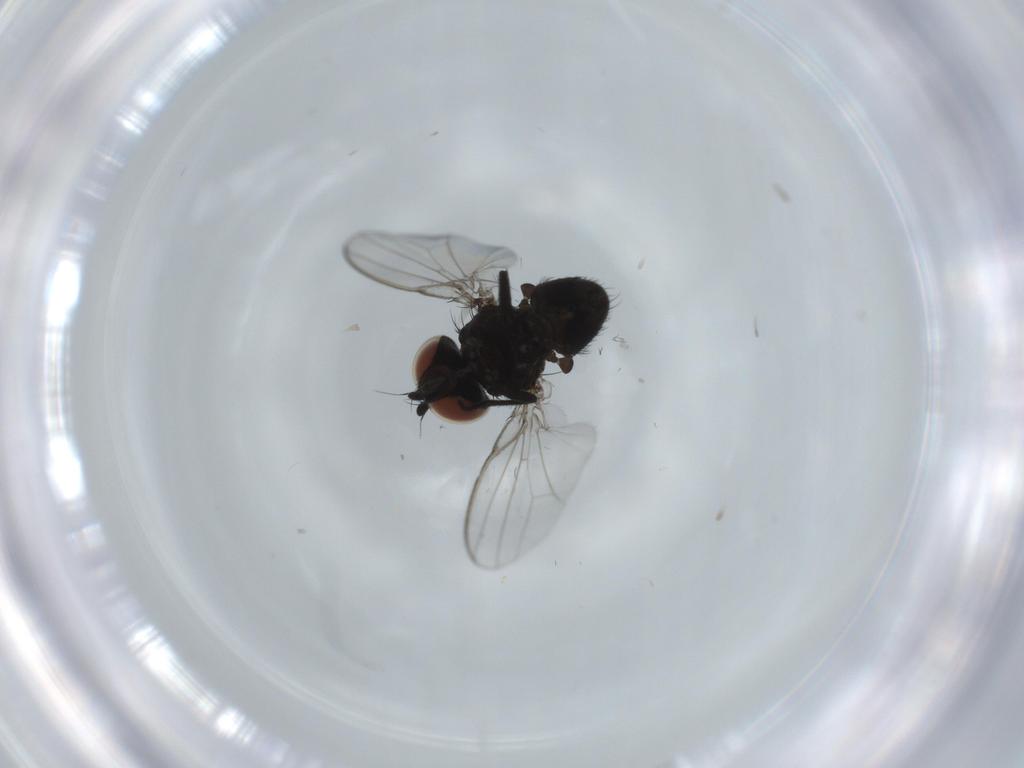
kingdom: Animalia
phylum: Arthropoda
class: Insecta
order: Diptera
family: Milichiidae
